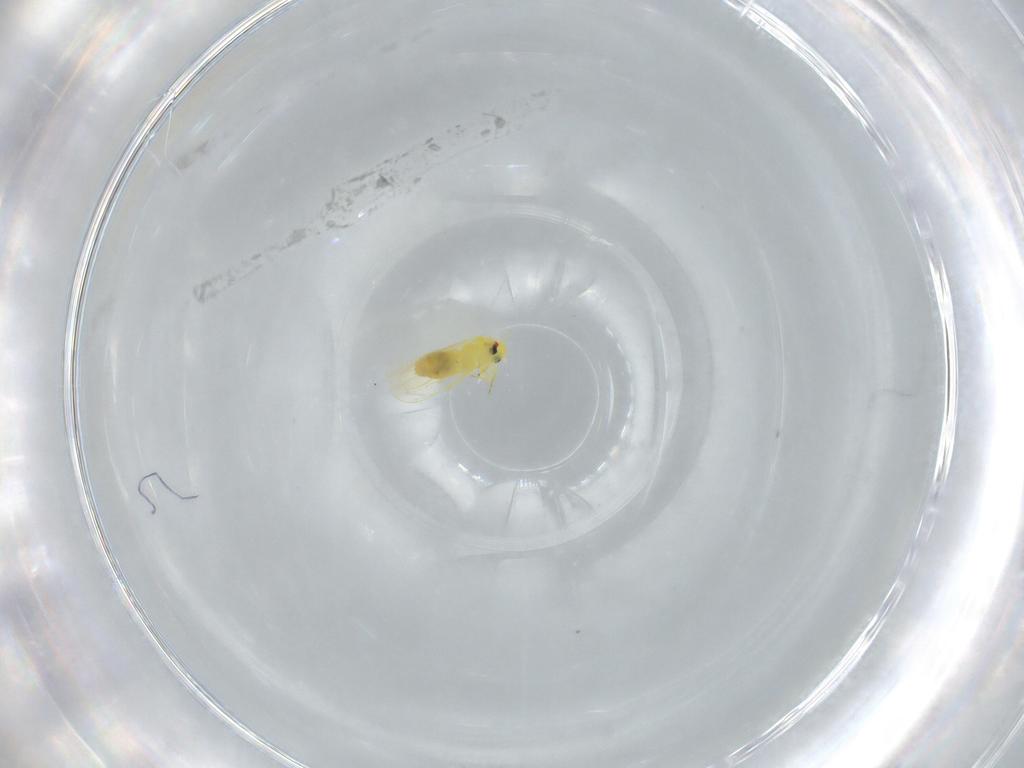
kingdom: Animalia
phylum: Arthropoda
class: Insecta
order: Hemiptera
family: Aleyrodidae
